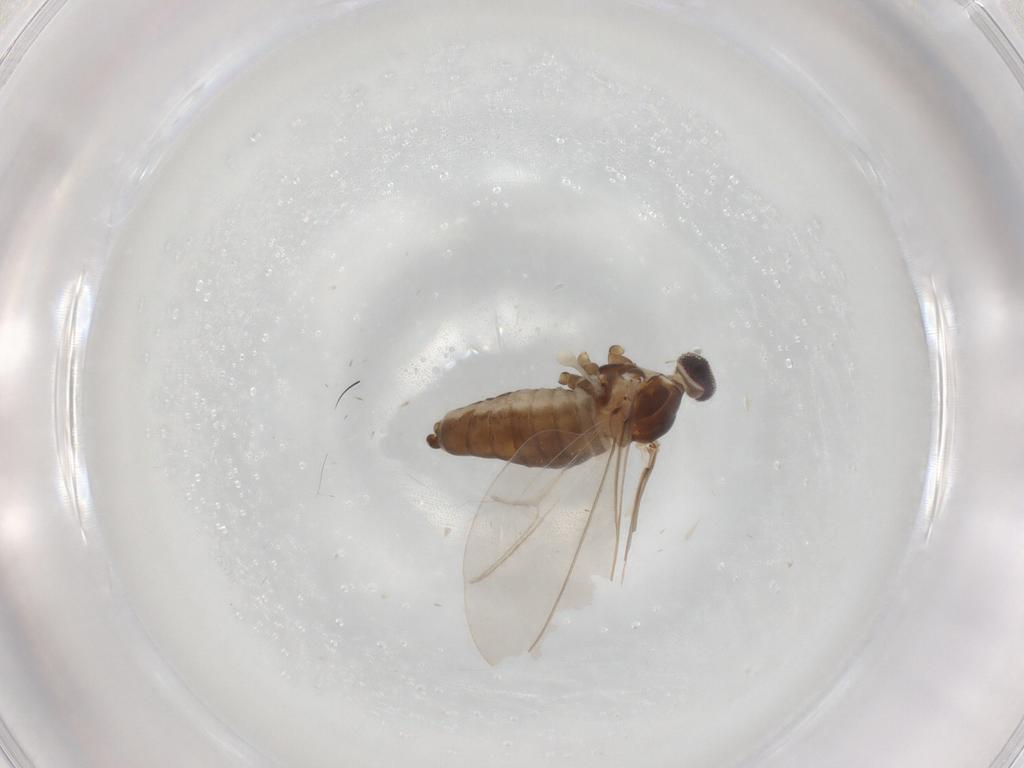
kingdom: Animalia
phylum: Arthropoda
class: Insecta
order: Diptera
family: Cecidomyiidae
